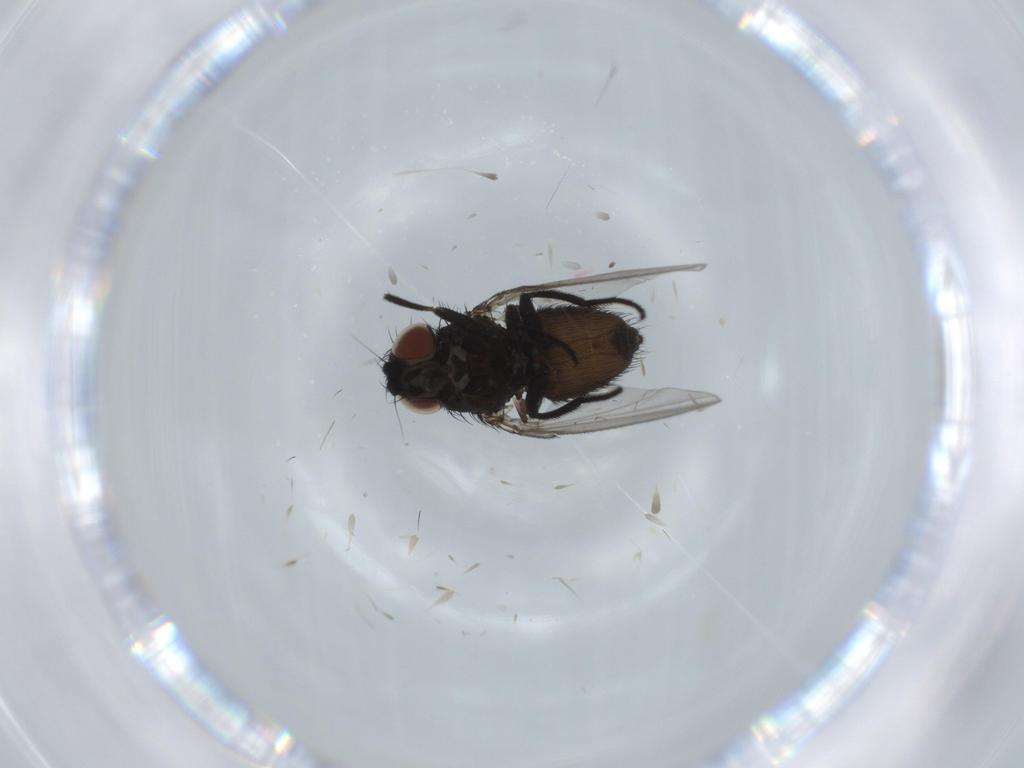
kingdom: Animalia
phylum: Arthropoda
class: Insecta
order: Diptera
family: Milichiidae
